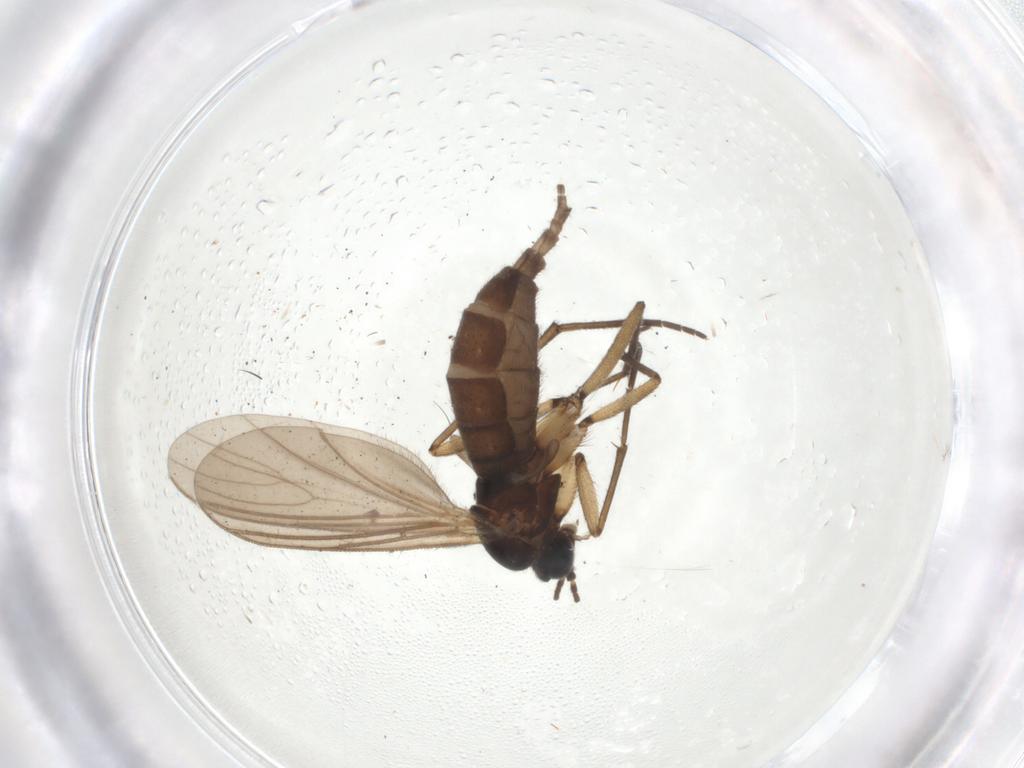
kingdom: Animalia
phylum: Arthropoda
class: Insecta
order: Diptera
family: Sciaridae
